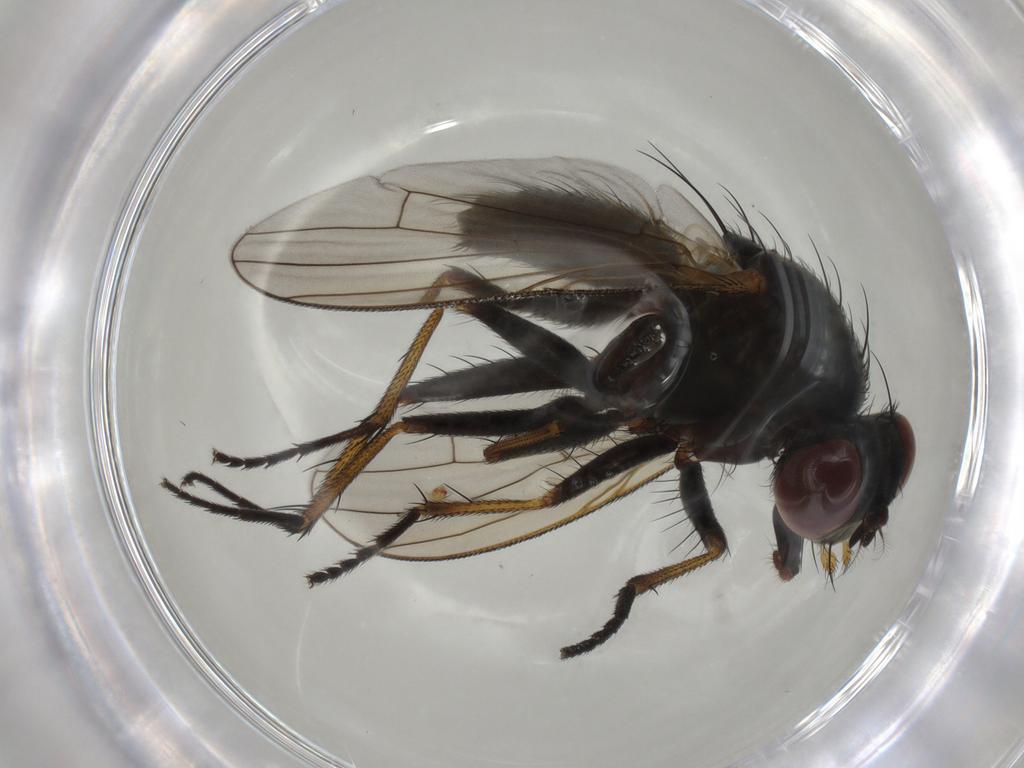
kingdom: Animalia
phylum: Arthropoda
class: Insecta
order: Diptera
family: Muscidae
